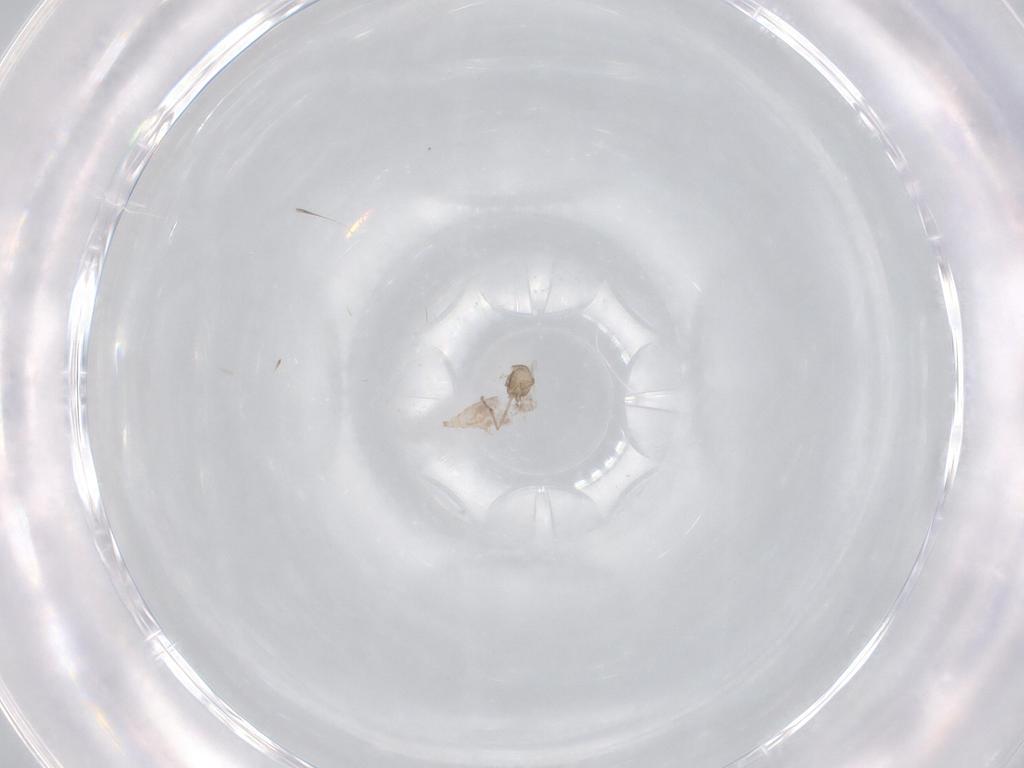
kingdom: Animalia
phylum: Arthropoda
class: Insecta
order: Diptera
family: Chironomidae
